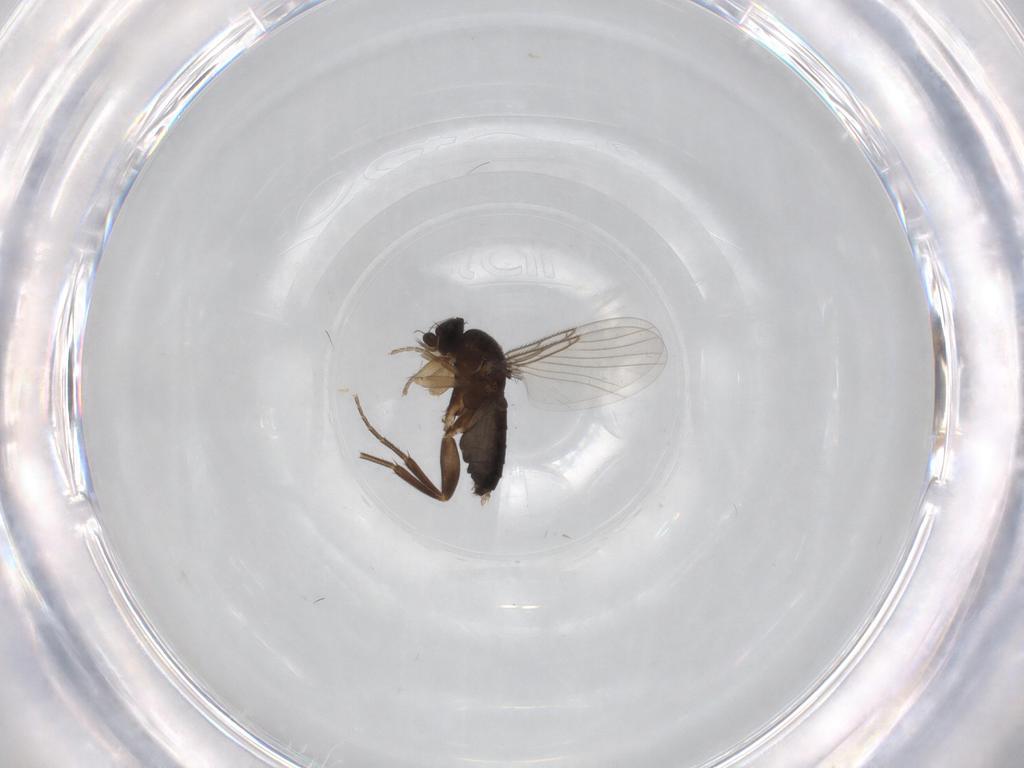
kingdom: Animalia
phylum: Arthropoda
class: Insecta
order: Diptera
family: Phoridae
